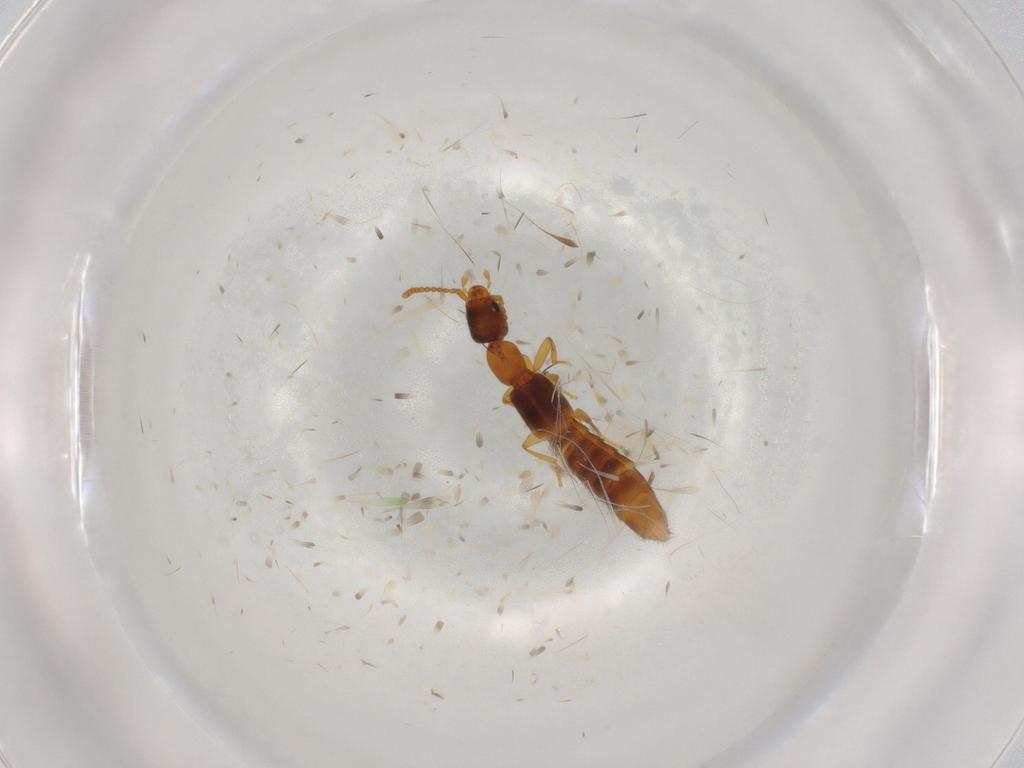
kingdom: Animalia
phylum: Arthropoda
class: Insecta
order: Coleoptera
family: Staphylinidae
